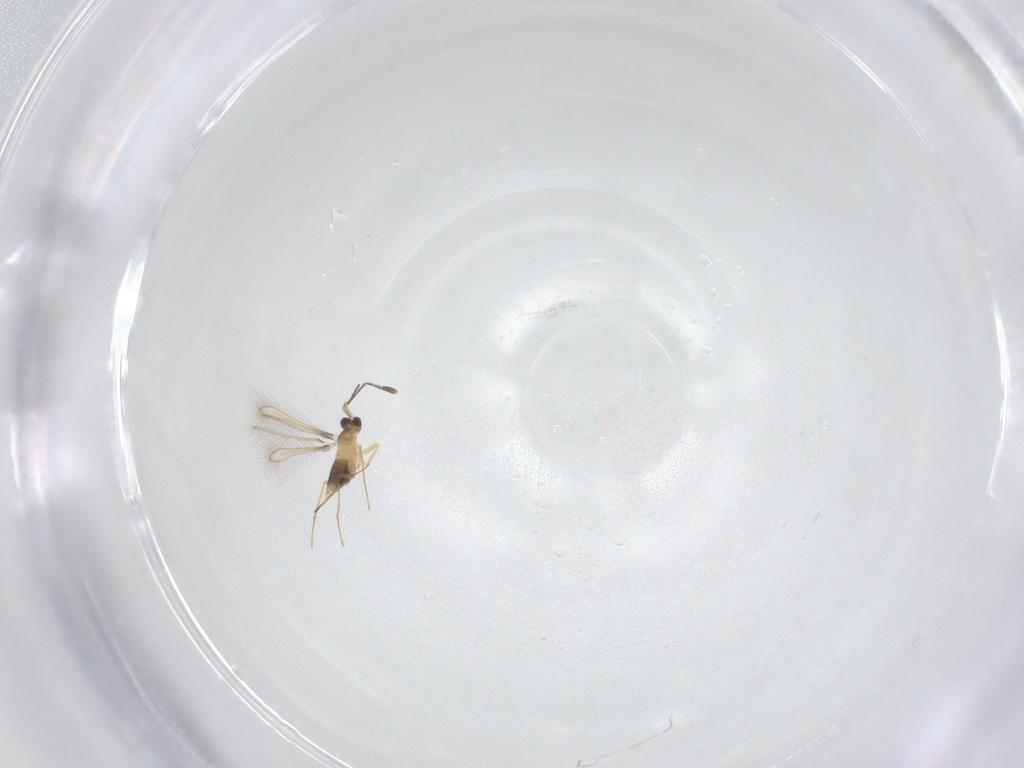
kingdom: Animalia
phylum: Arthropoda
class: Insecta
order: Hymenoptera
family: Mymaridae
